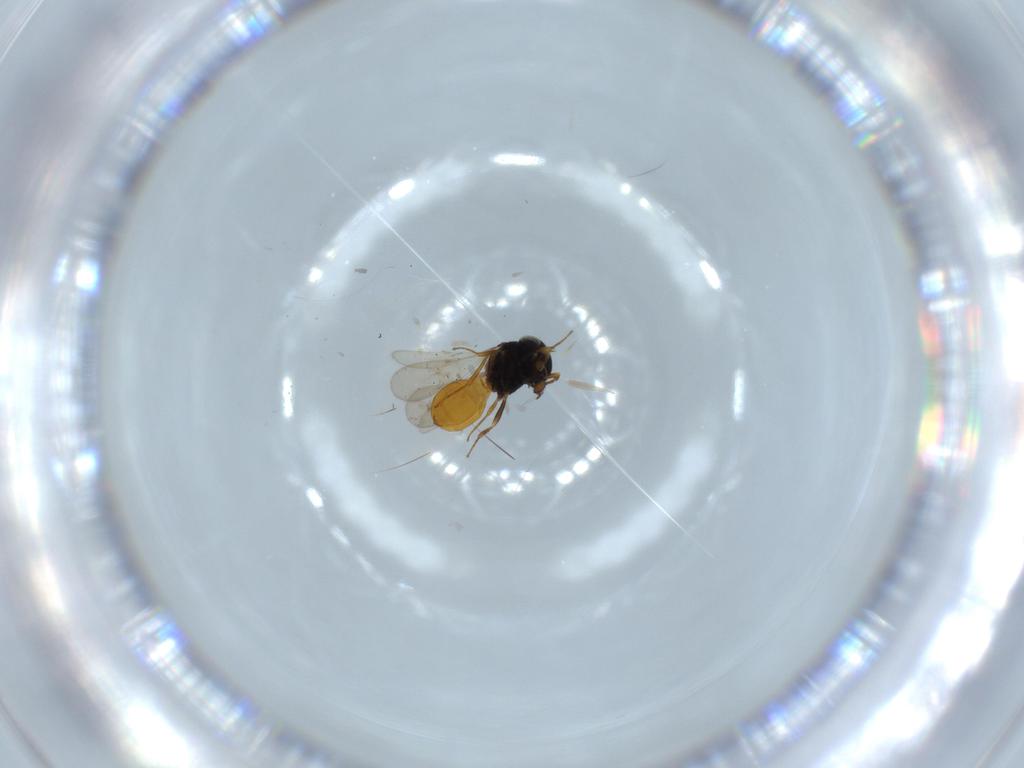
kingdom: Animalia
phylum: Arthropoda
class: Insecta
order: Hymenoptera
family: Scelionidae
